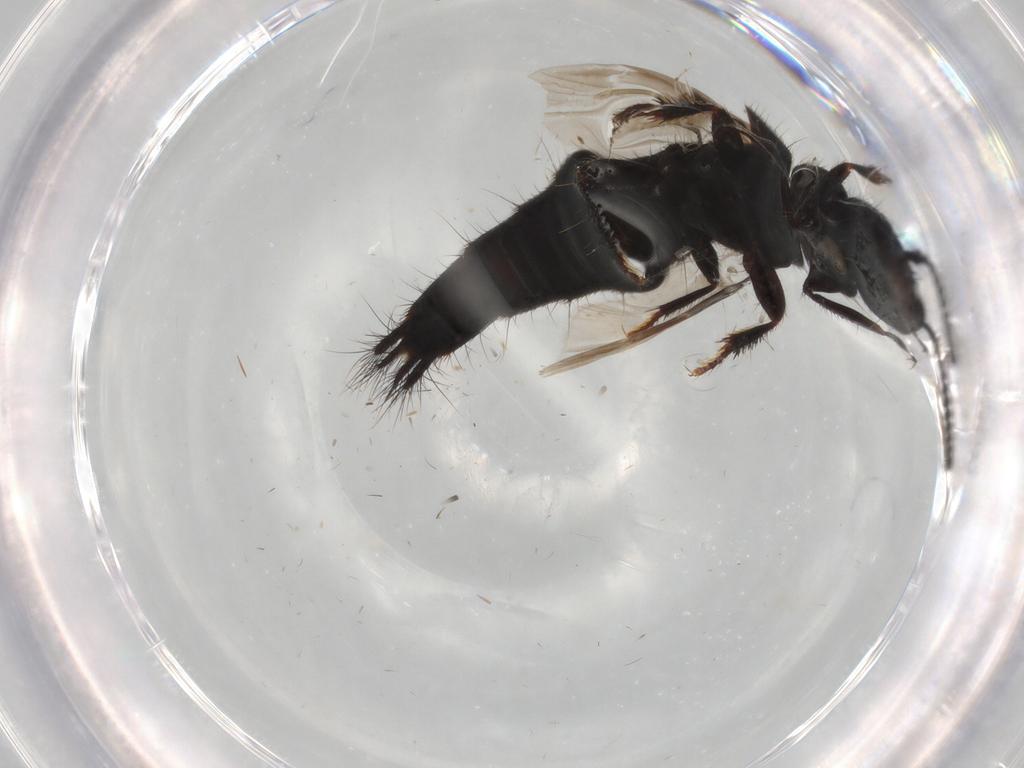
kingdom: Animalia
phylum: Arthropoda
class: Insecta
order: Coleoptera
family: Staphylinidae
